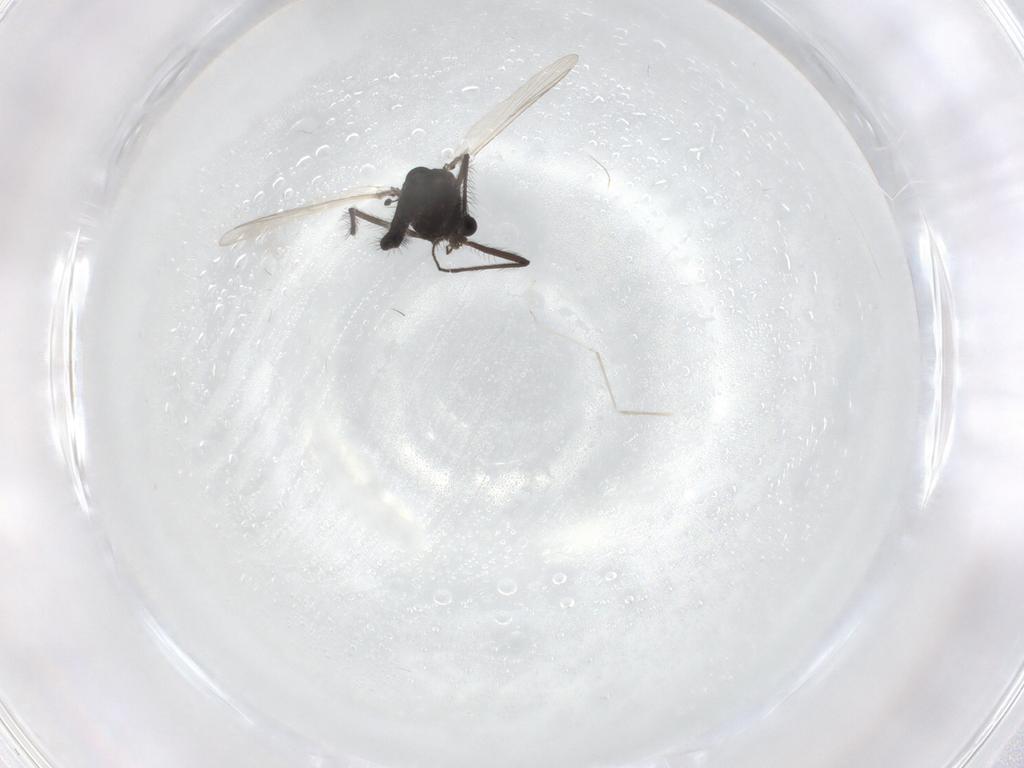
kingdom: Animalia
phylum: Arthropoda
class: Insecta
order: Diptera
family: Cecidomyiidae
